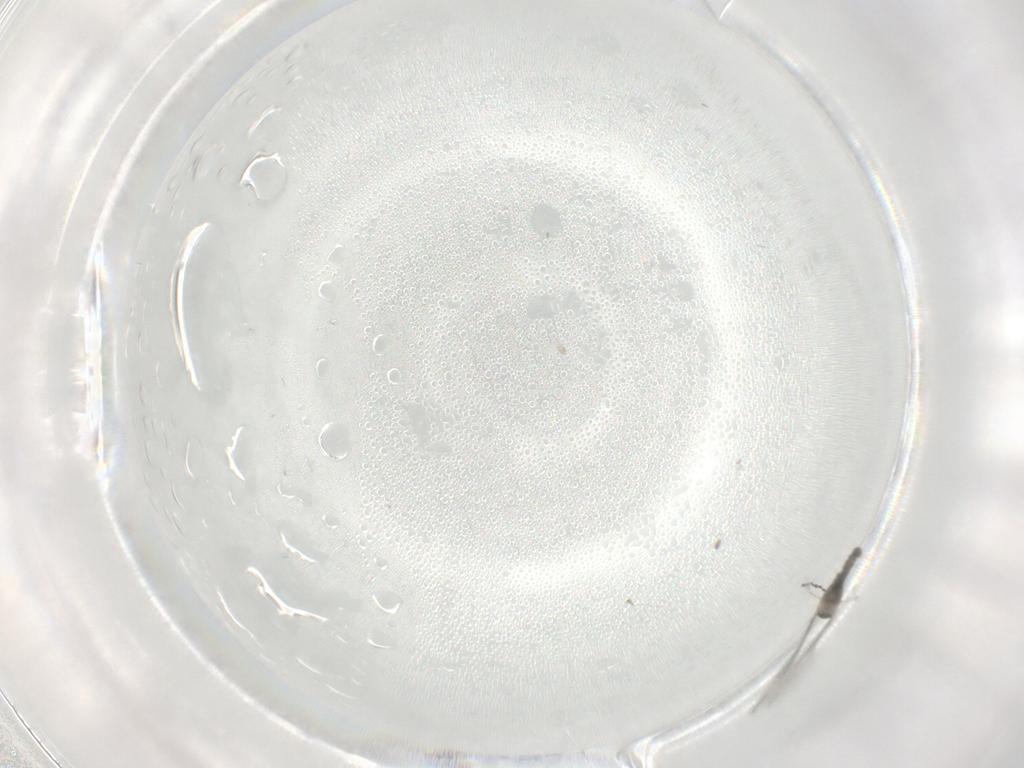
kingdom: Animalia
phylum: Arthropoda
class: Insecta
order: Diptera
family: Cecidomyiidae
